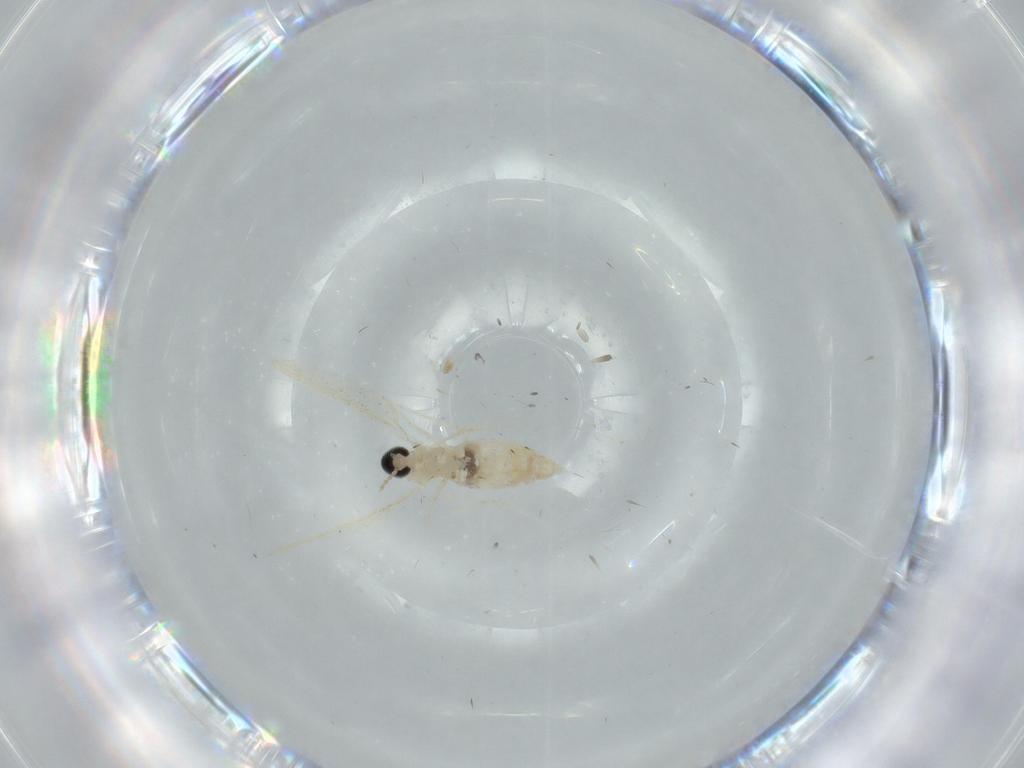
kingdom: Animalia
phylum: Arthropoda
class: Insecta
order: Diptera
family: Cecidomyiidae
